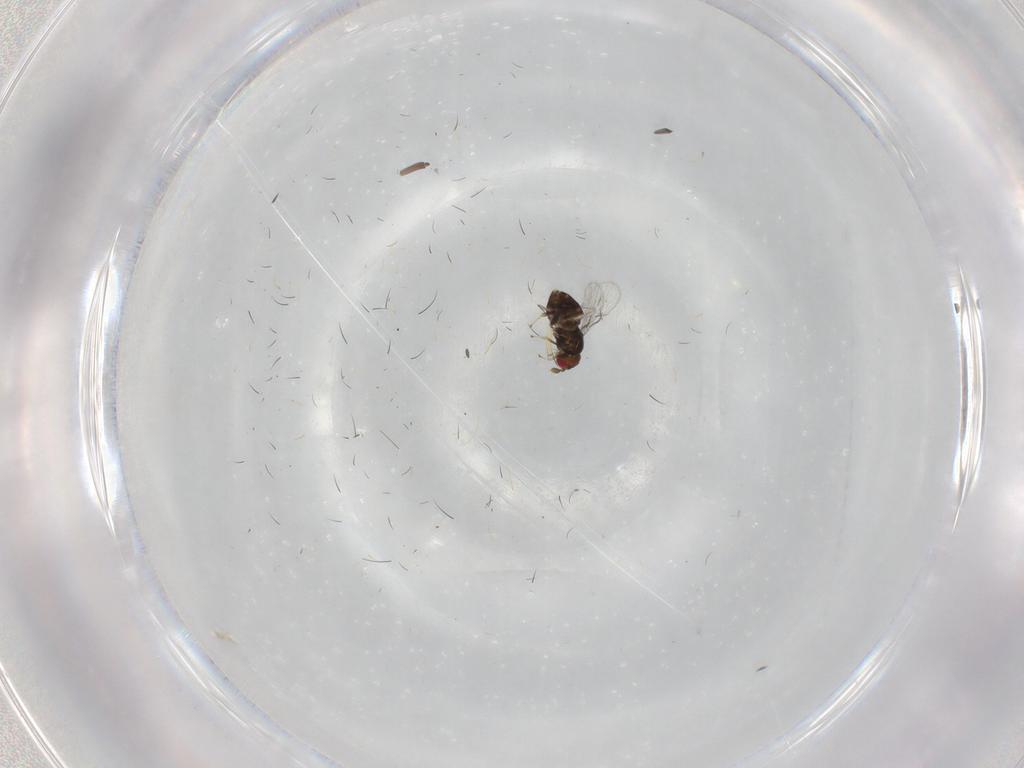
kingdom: Animalia
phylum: Arthropoda
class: Insecta
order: Hymenoptera
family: Trichogrammatidae
